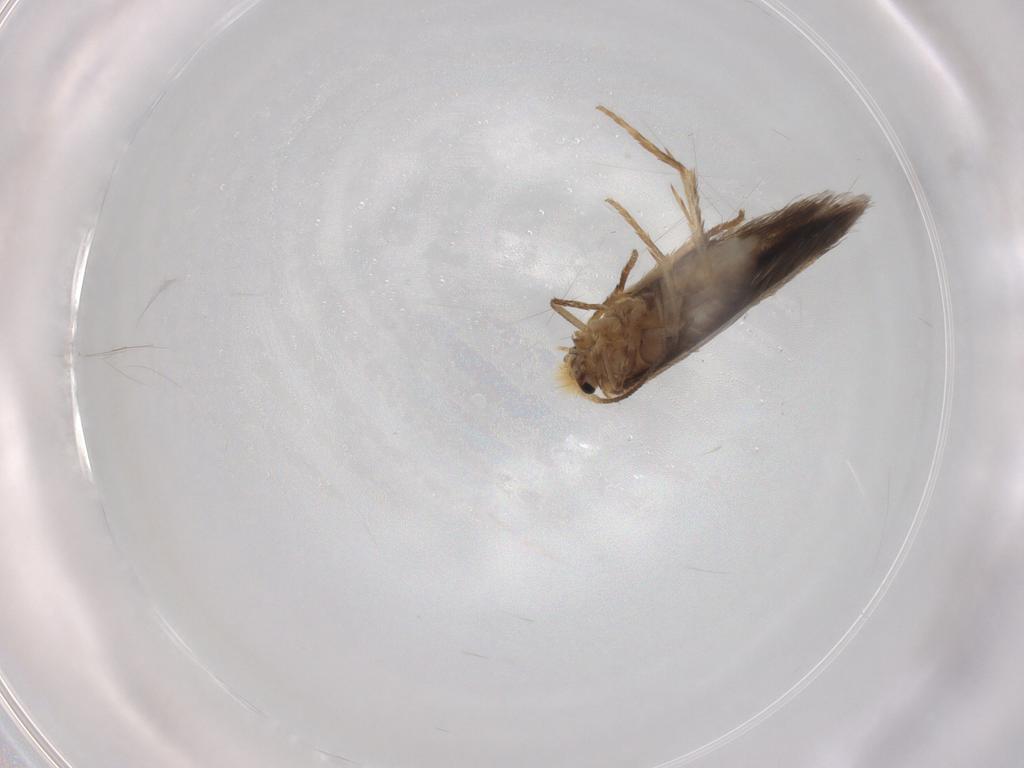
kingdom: Animalia
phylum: Arthropoda
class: Insecta
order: Lepidoptera
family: Nepticulidae
